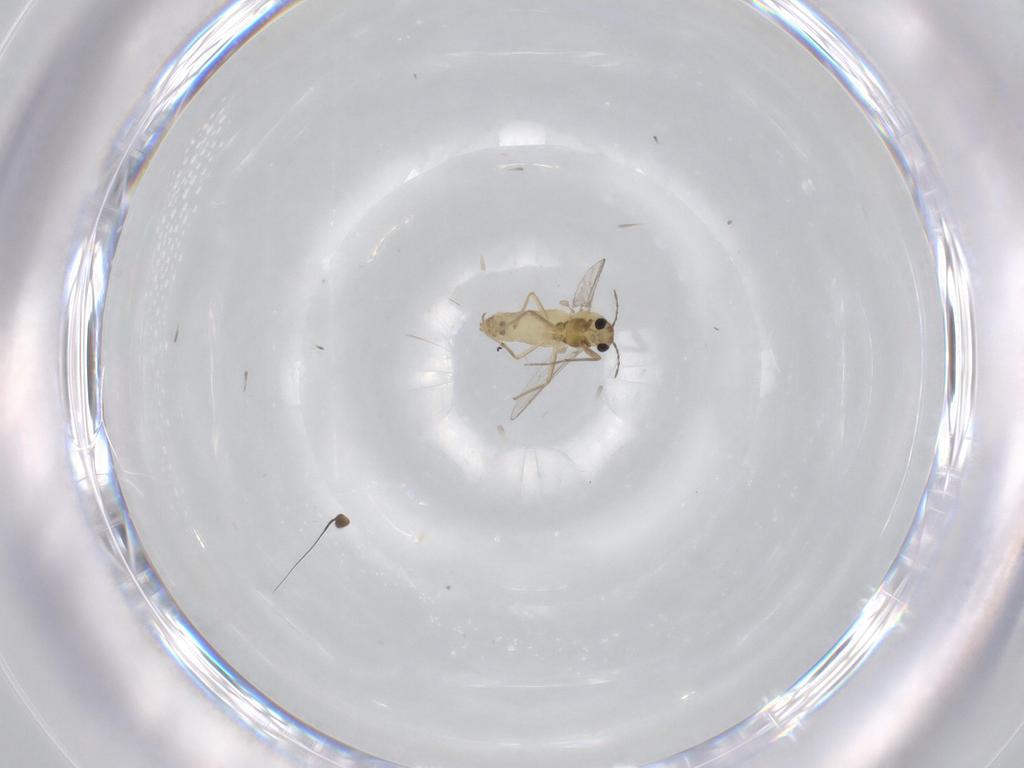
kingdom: Animalia
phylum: Arthropoda
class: Insecta
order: Diptera
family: Chironomidae
